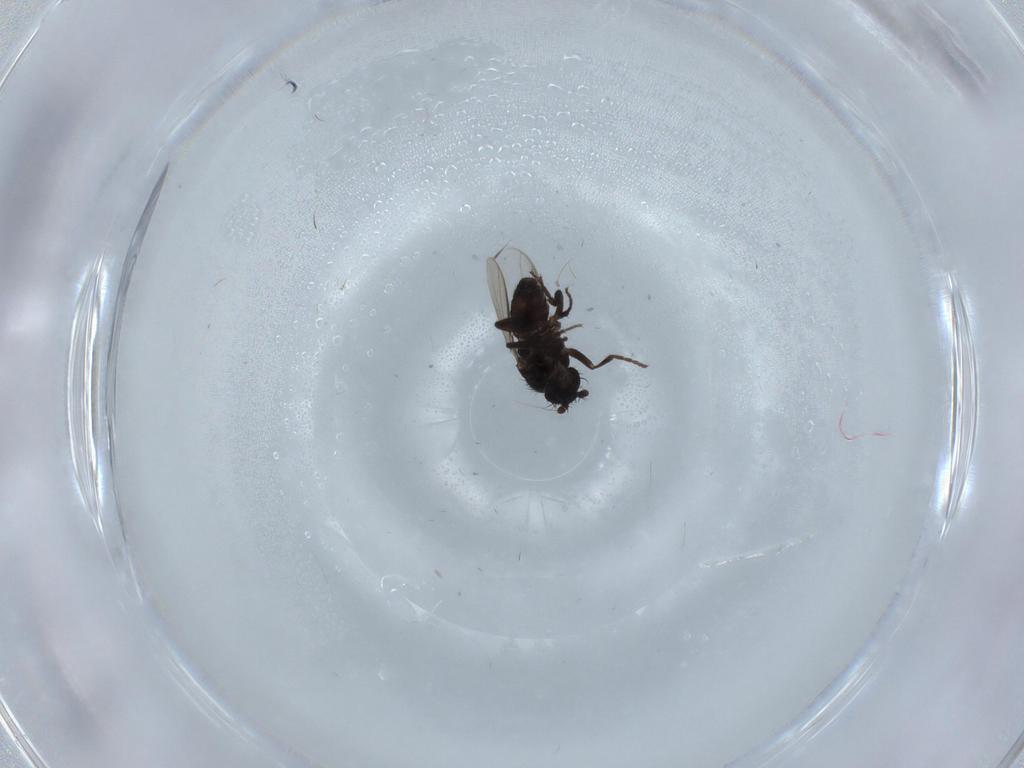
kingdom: Animalia
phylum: Arthropoda
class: Insecta
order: Diptera
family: Sphaeroceridae
